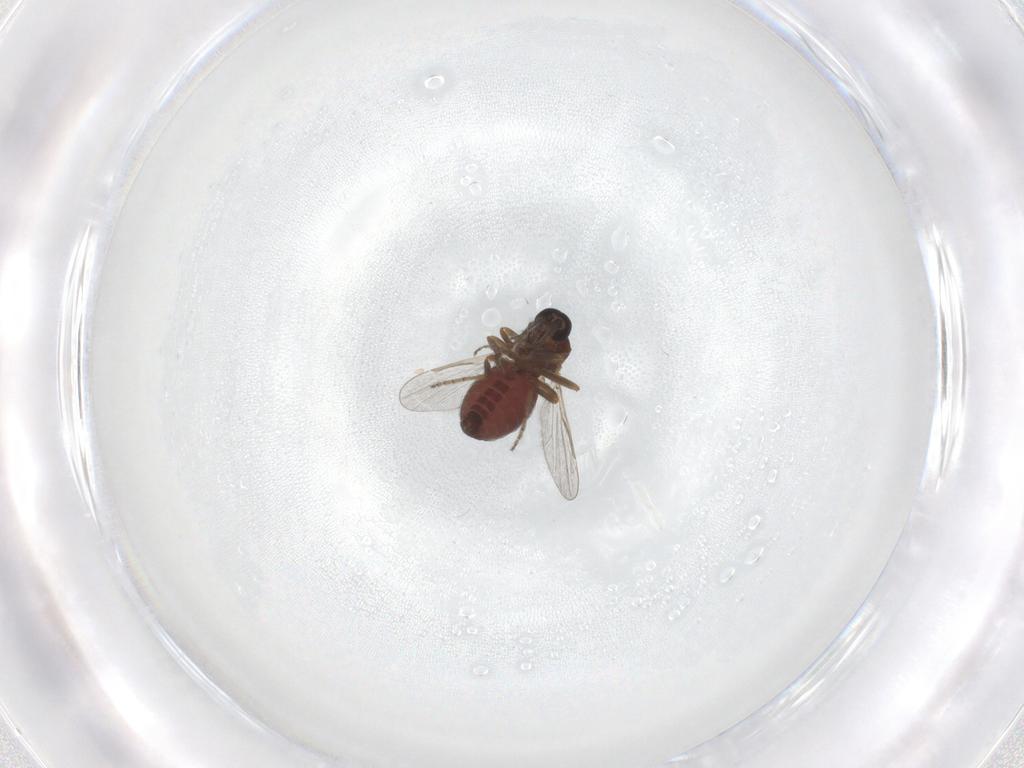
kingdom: Animalia
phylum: Arthropoda
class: Insecta
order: Diptera
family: Ceratopogonidae
